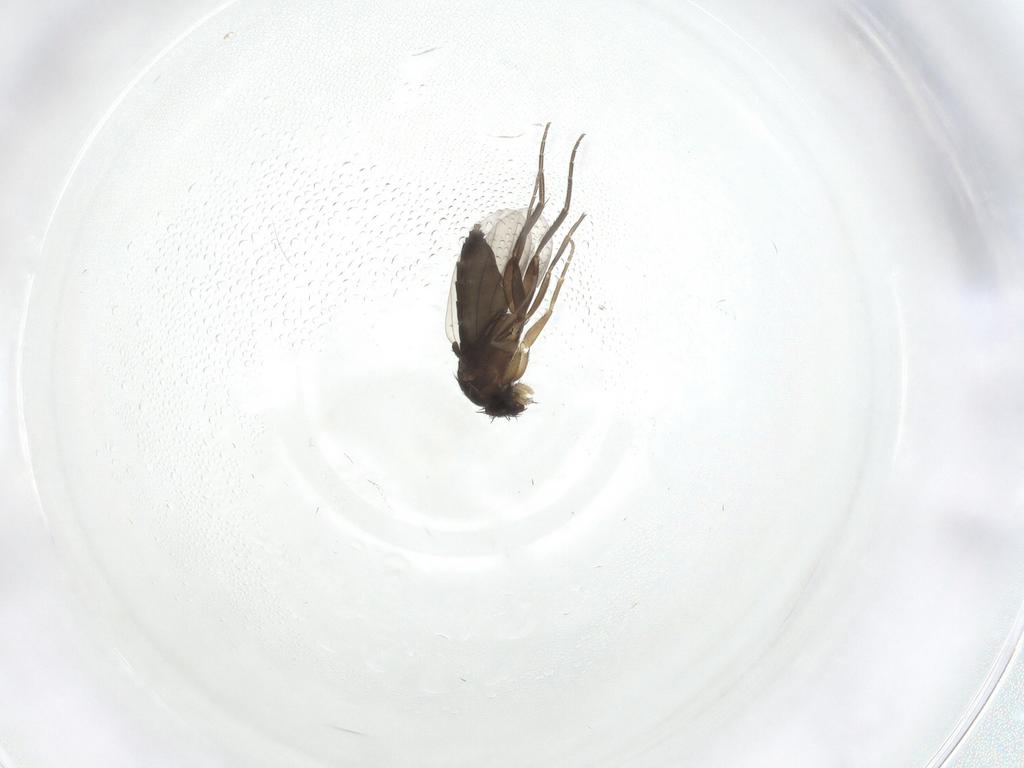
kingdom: Animalia
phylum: Arthropoda
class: Insecta
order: Diptera
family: Phoridae
